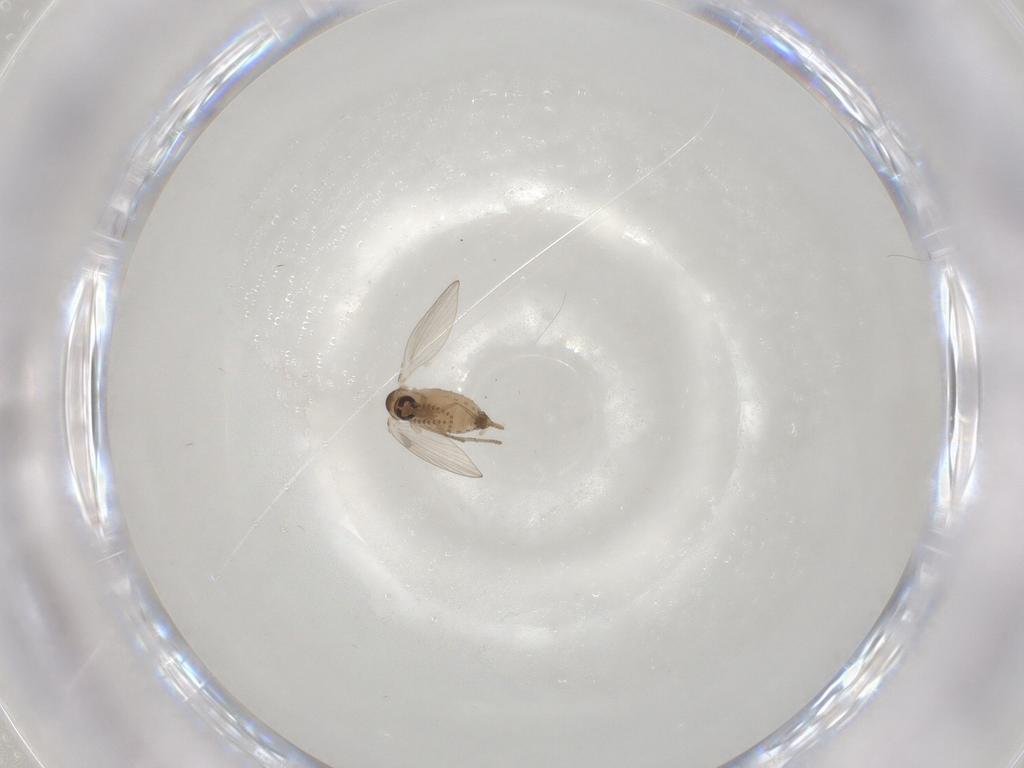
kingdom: Animalia
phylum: Arthropoda
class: Insecta
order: Diptera
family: Psychodidae
